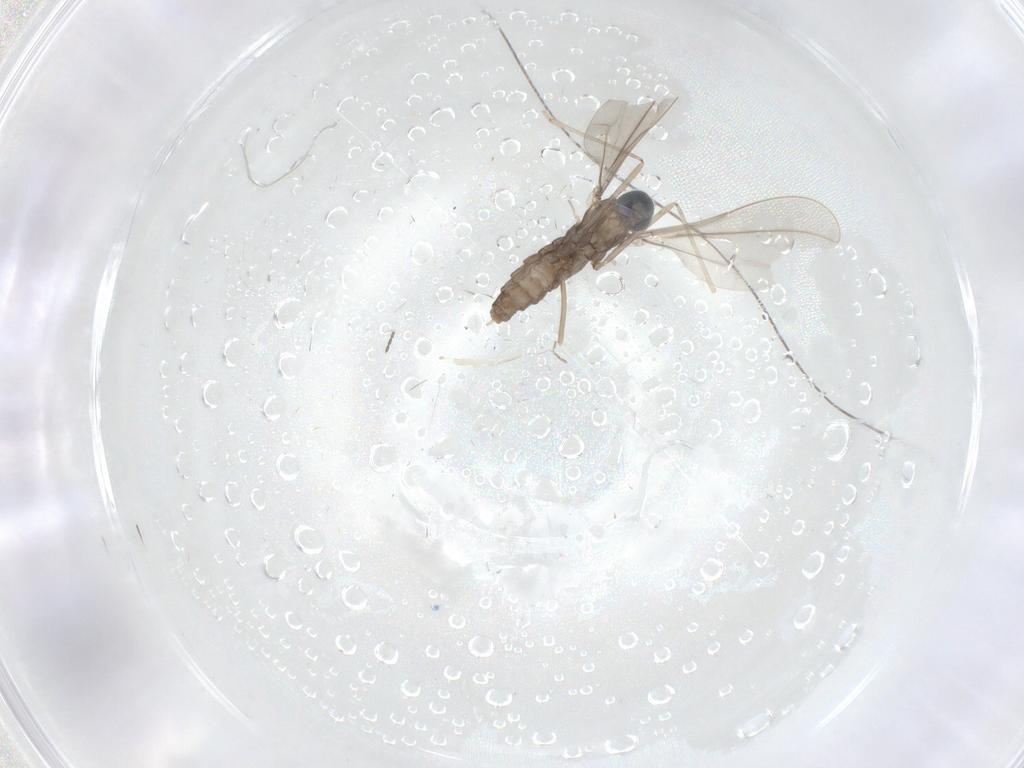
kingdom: Animalia
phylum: Arthropoda
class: Insecta
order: Diptera
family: Cecidomyiidae
